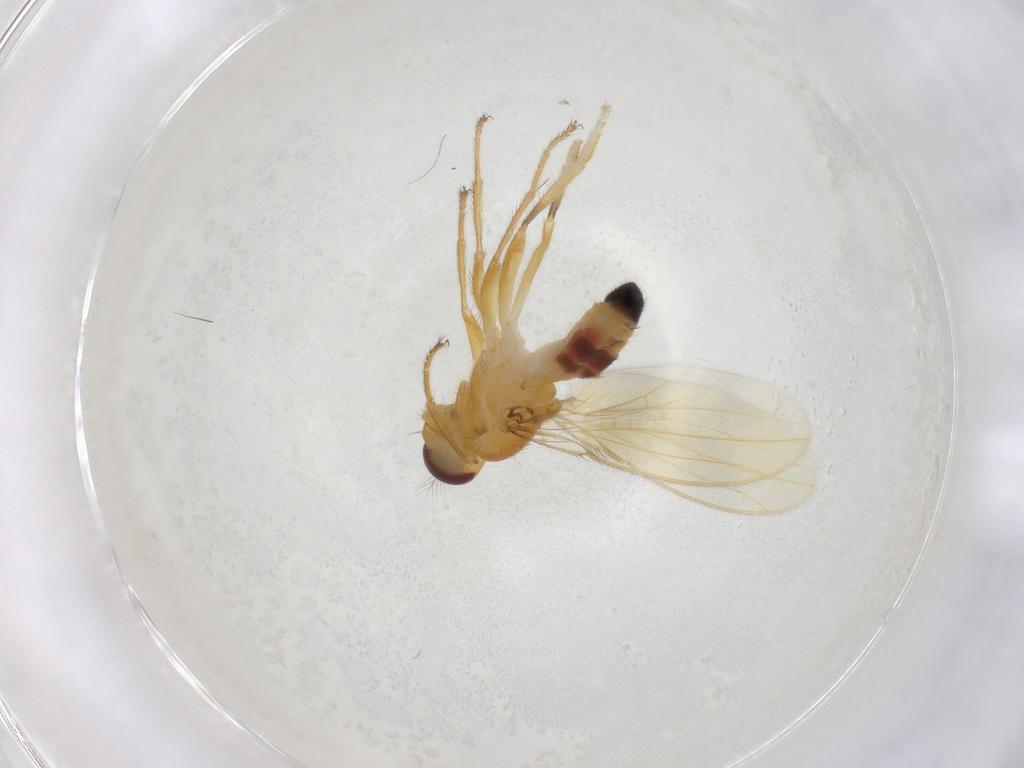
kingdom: Animalia
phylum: Arthropoda
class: Insecta
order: Diptera
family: Periscelididae
